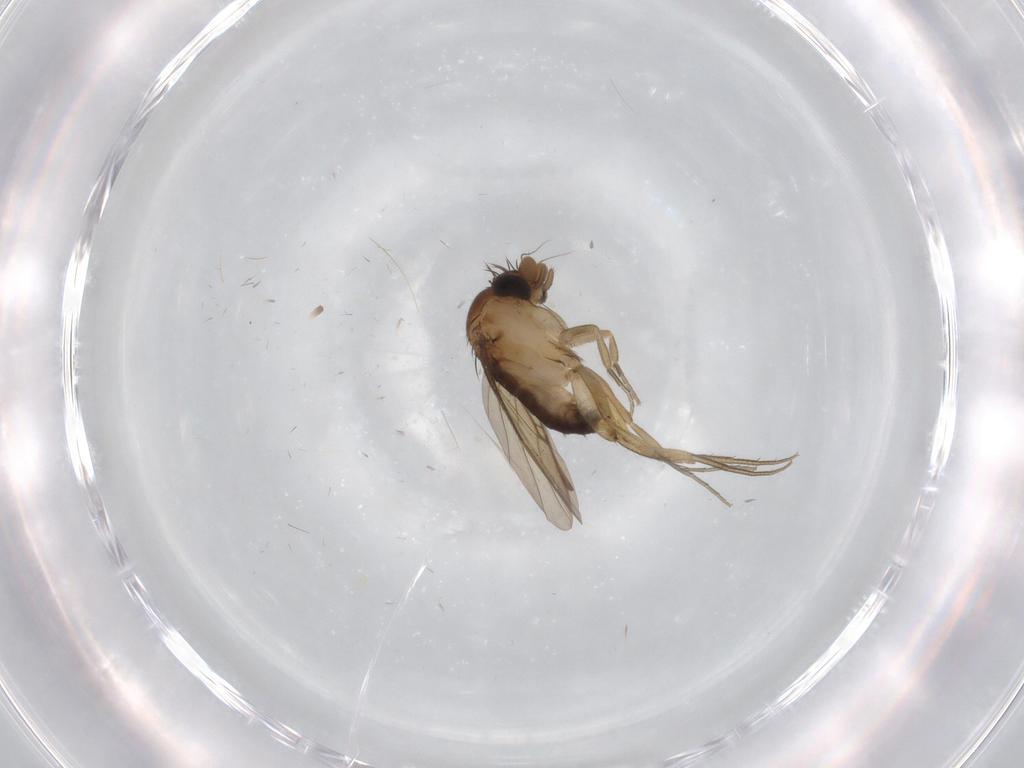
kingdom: Animalia
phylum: Arthropoda
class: Insecta
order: Diptera
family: Phoridae
